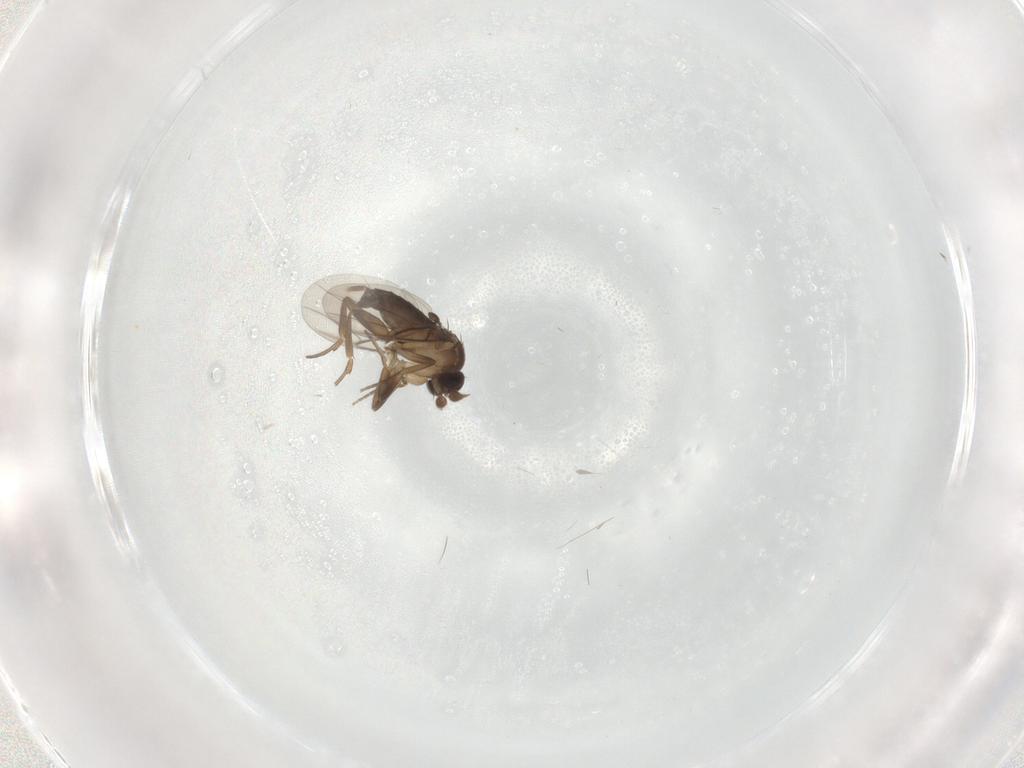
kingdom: Animalia
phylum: Arthropoda
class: Insecta
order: Diptera
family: Phoridae
